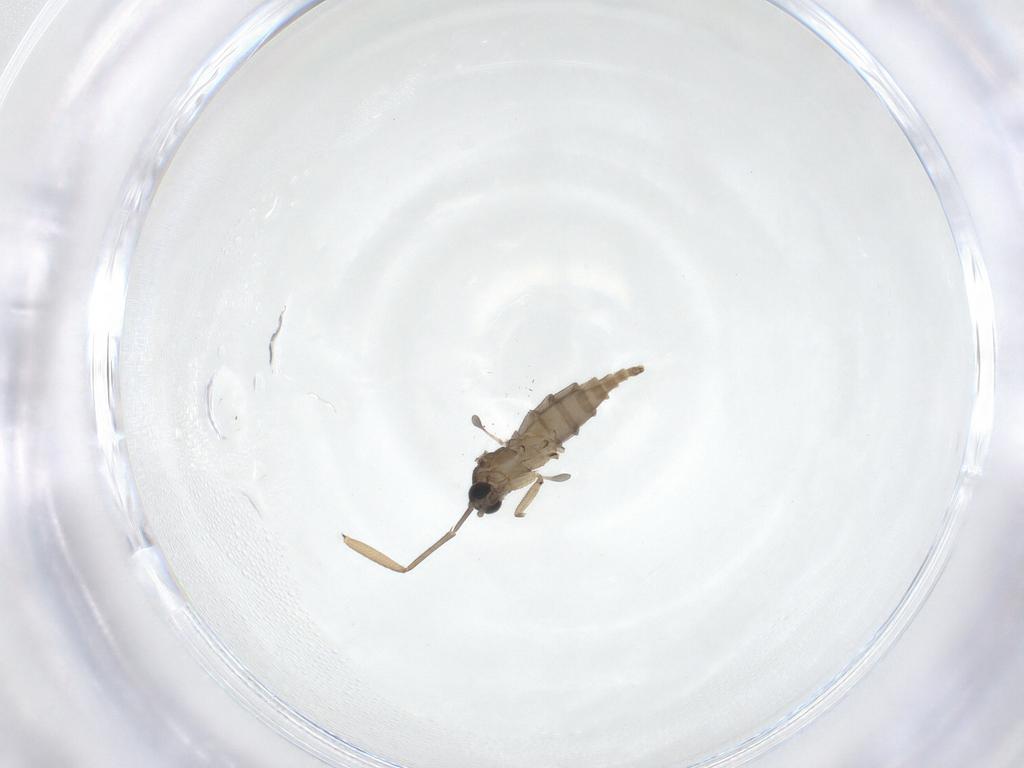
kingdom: Animalia
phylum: Arthropoda
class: Insecta
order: Diptera
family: Sciaridae
